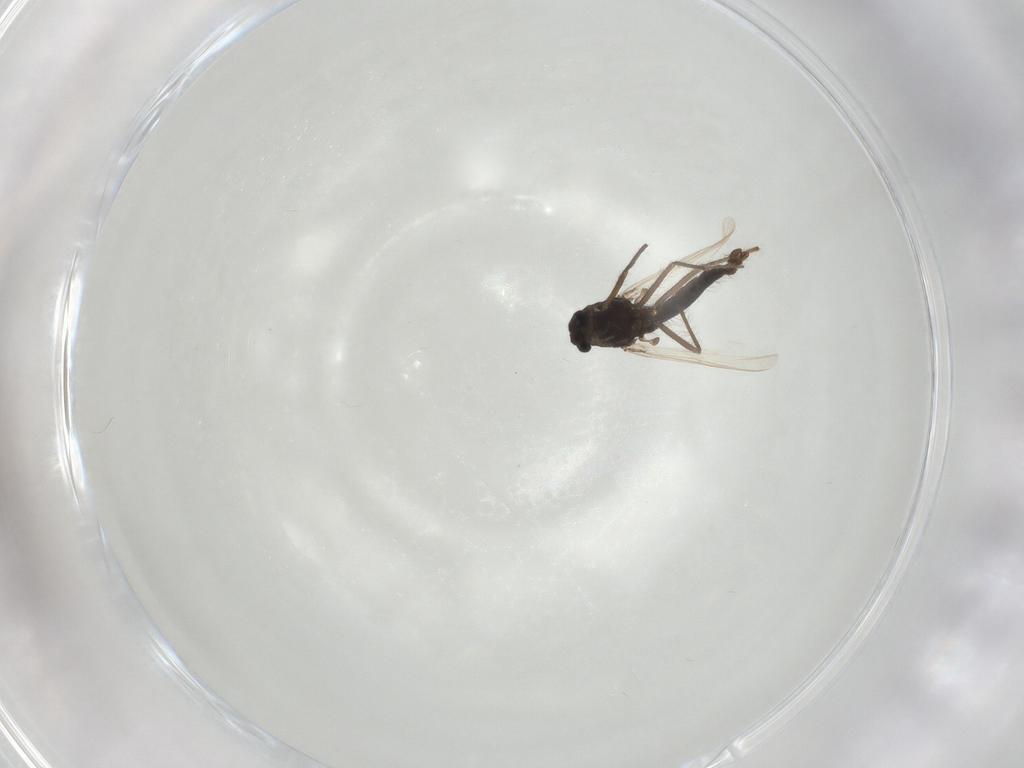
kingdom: Animalia
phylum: Arthropoda
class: Insecta
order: Diptera
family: Chironomidae
